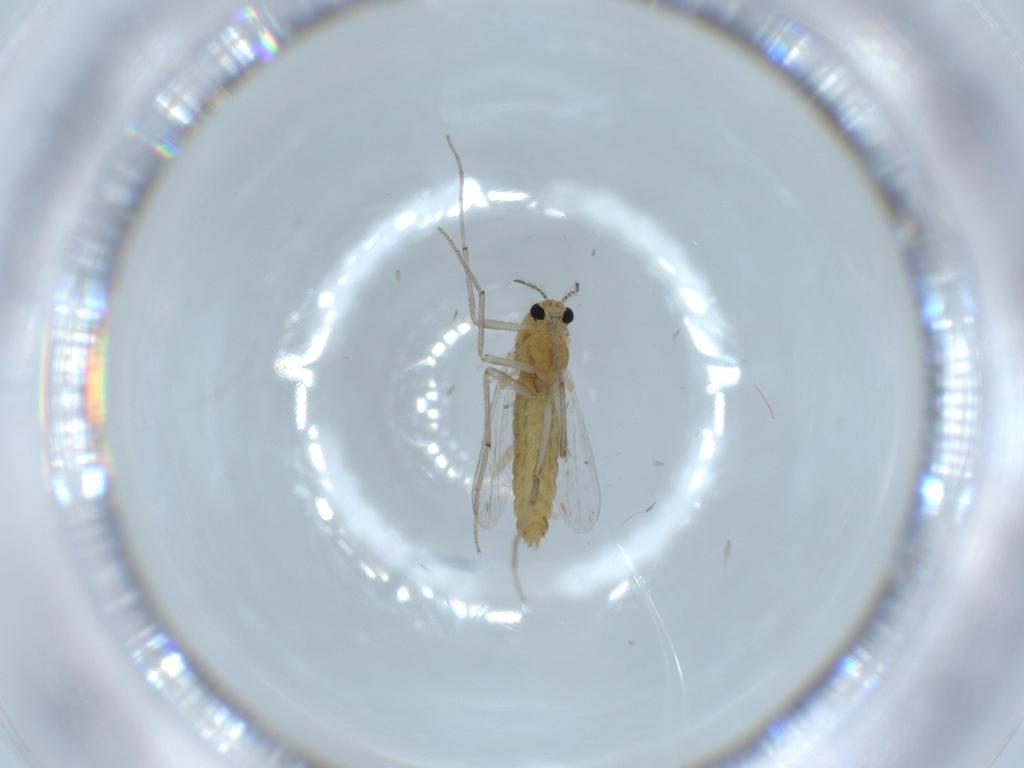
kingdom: Animalia
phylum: Arthropoda
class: Insecta
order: Diptera
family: Chironomidae
